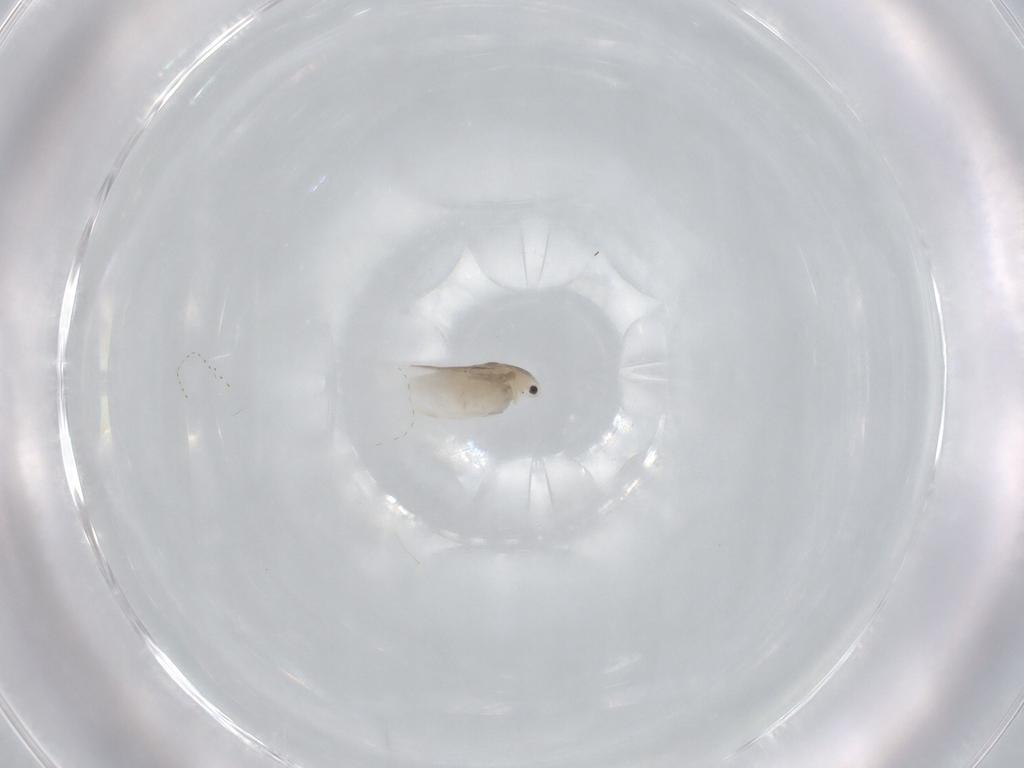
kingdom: Animalia
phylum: Arthropoda
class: Branchiopoda
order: Diplostraca
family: Daphniidae
